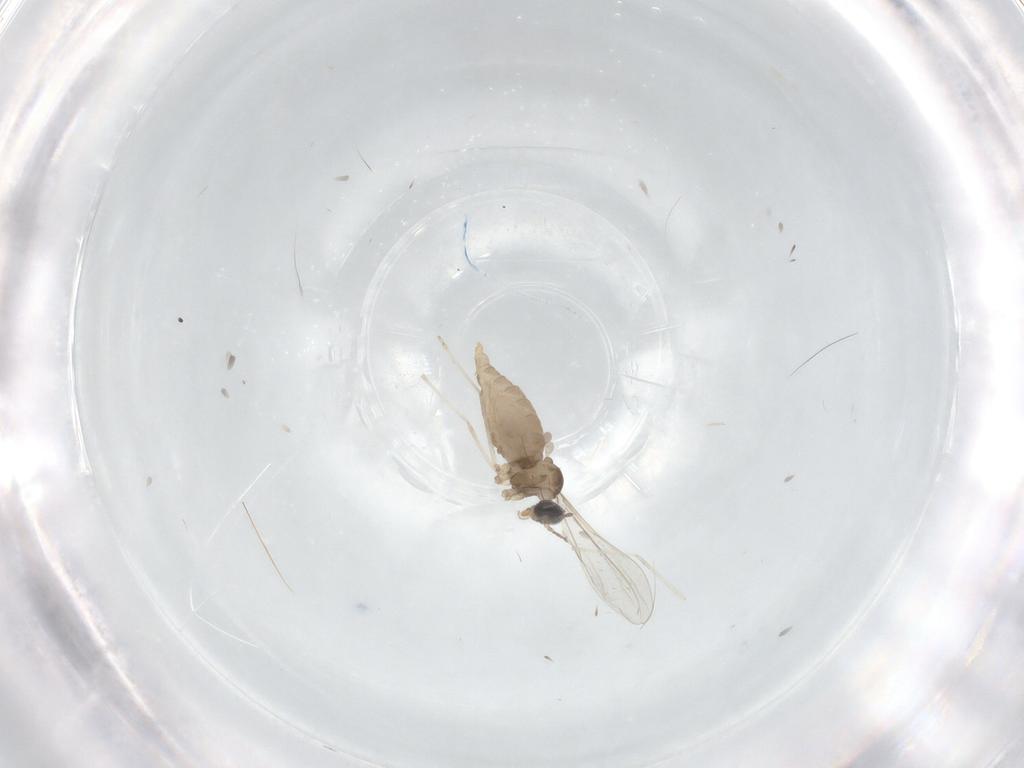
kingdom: Animalia
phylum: Arthropoda
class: Insecta
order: Diptera
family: Cecidomyiidae
